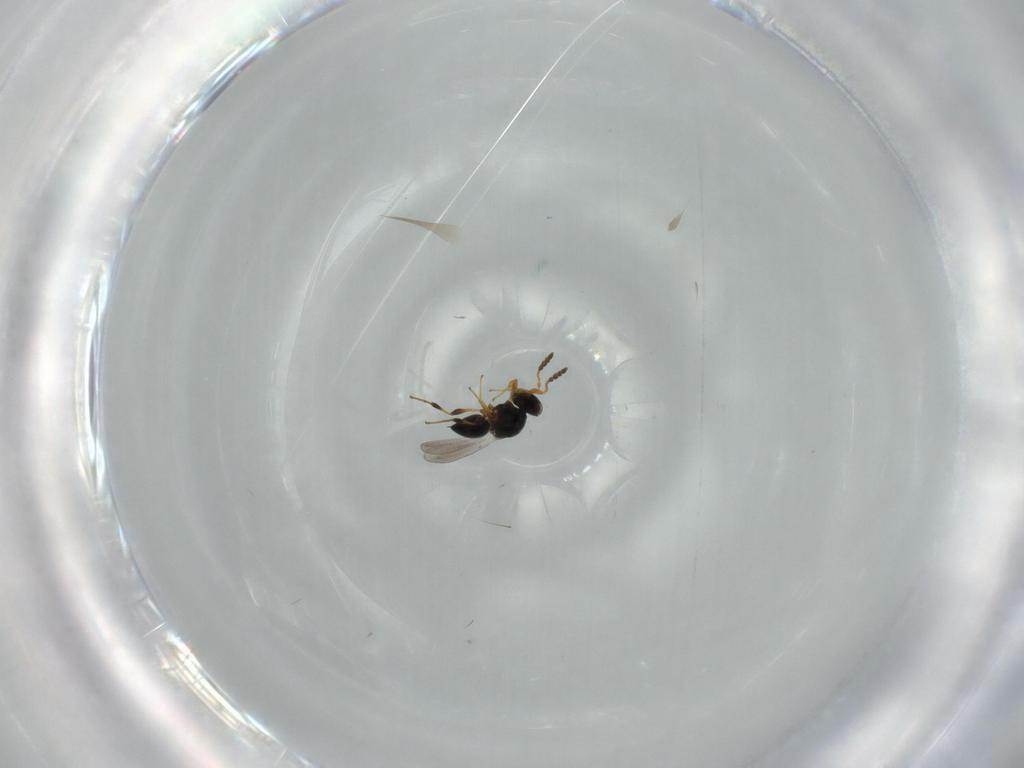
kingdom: Animalia
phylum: Arthropoda
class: Insecta
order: Hymenoptera
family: Platygastridae
